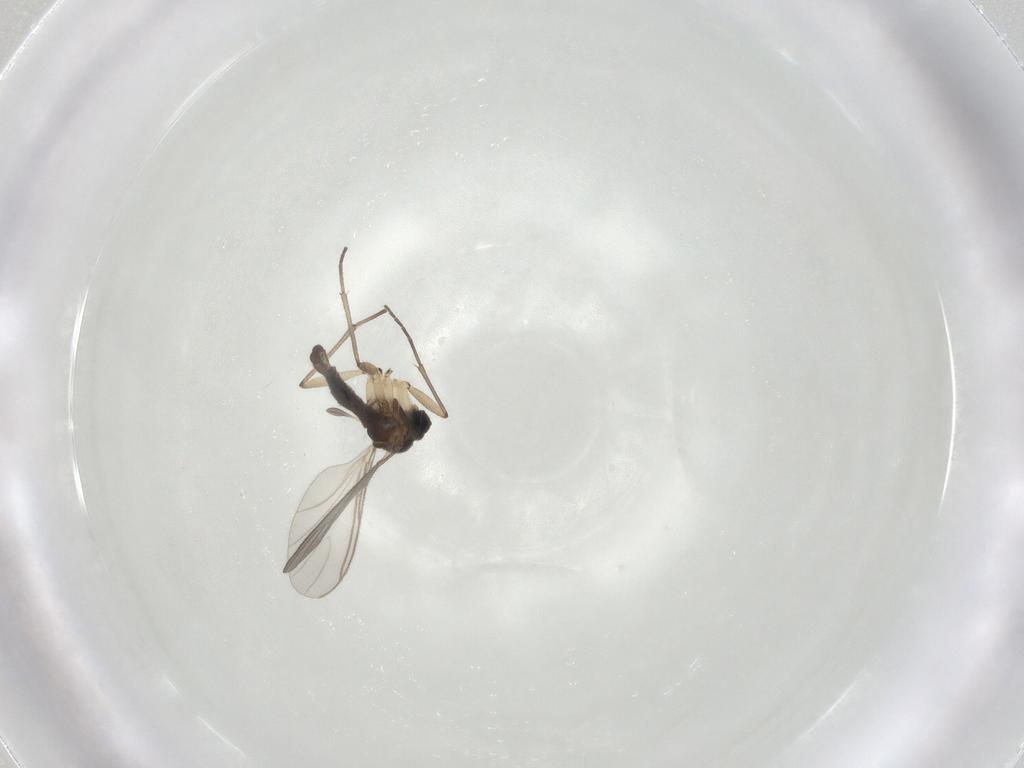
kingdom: Animalia
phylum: Arthropoda
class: Insecta
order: Diptera
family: Sciaridae
